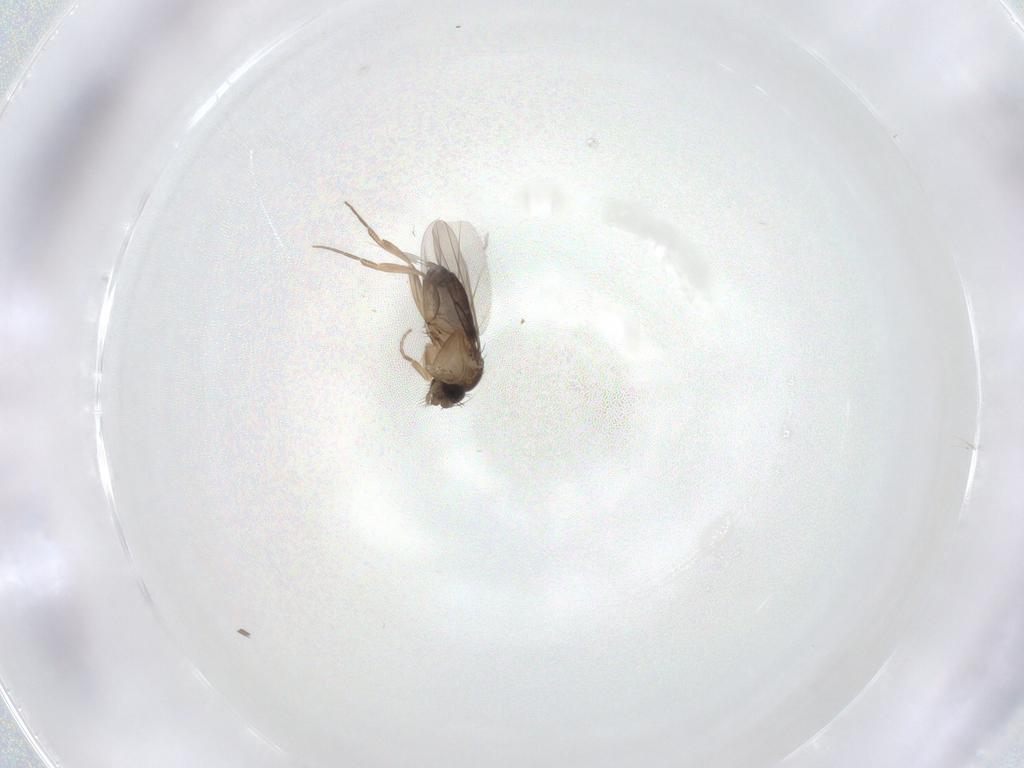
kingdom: Animalia
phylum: Arthropoda
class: Insecta
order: Diptera
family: Phoridae
